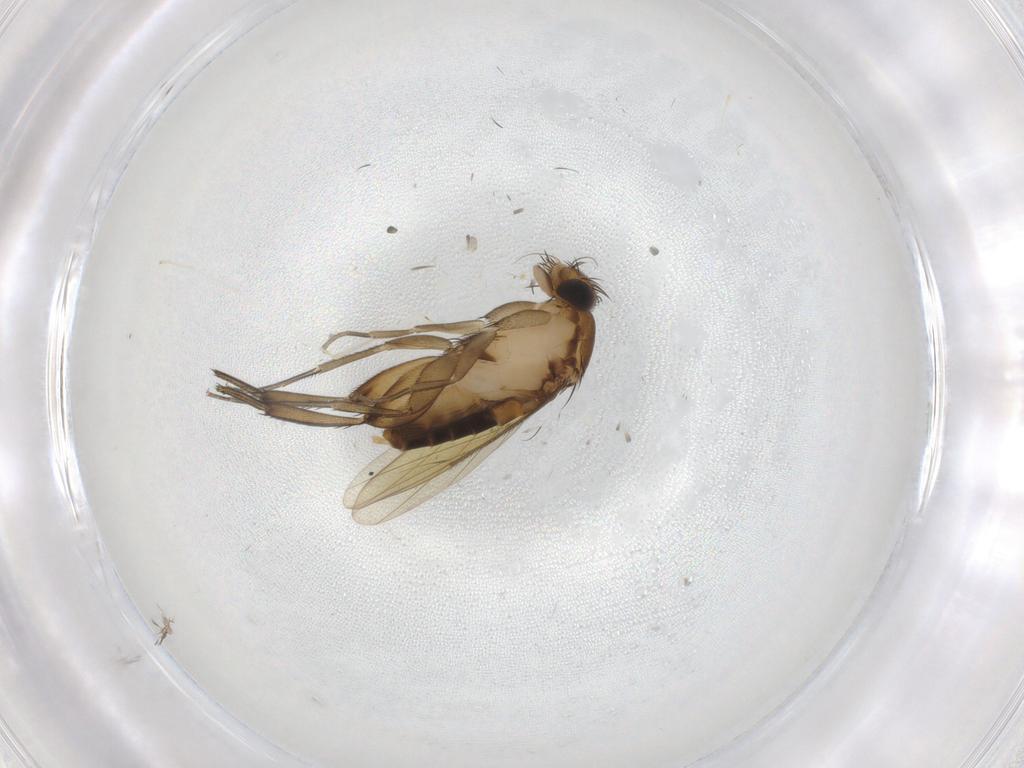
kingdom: Animalia
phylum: Arthropoda
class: Insecta
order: Diptera
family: Phoridae
